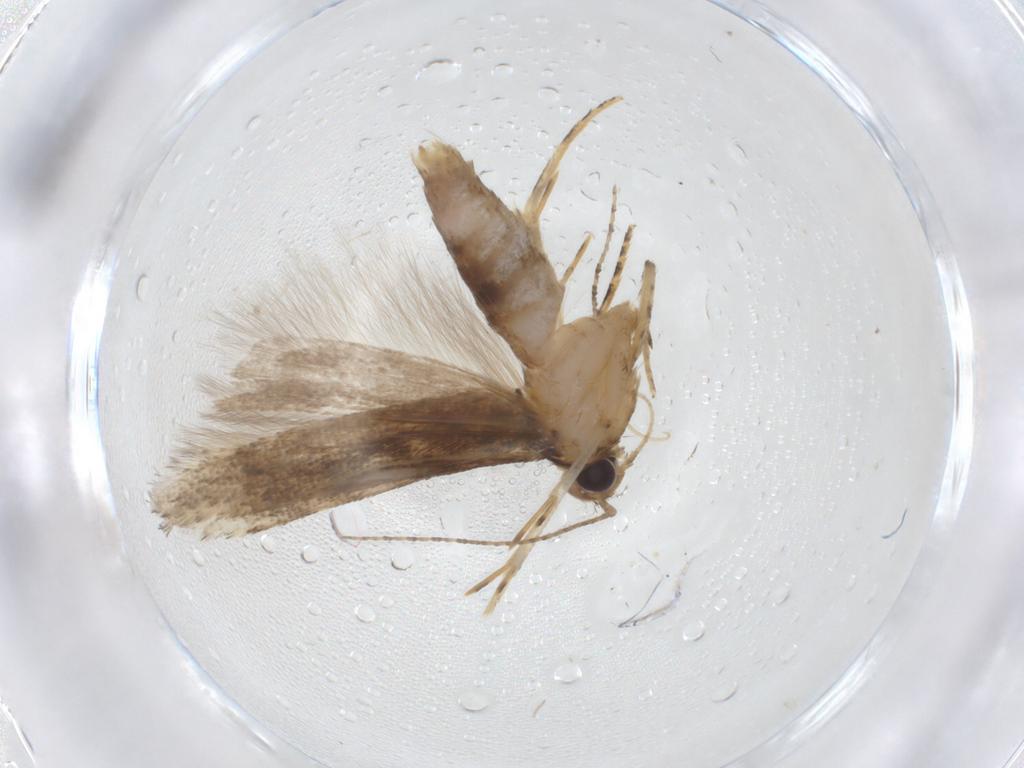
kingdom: Animalia
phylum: Arthropoda
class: Insecta
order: Lepidoptera
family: Gelechiidae
